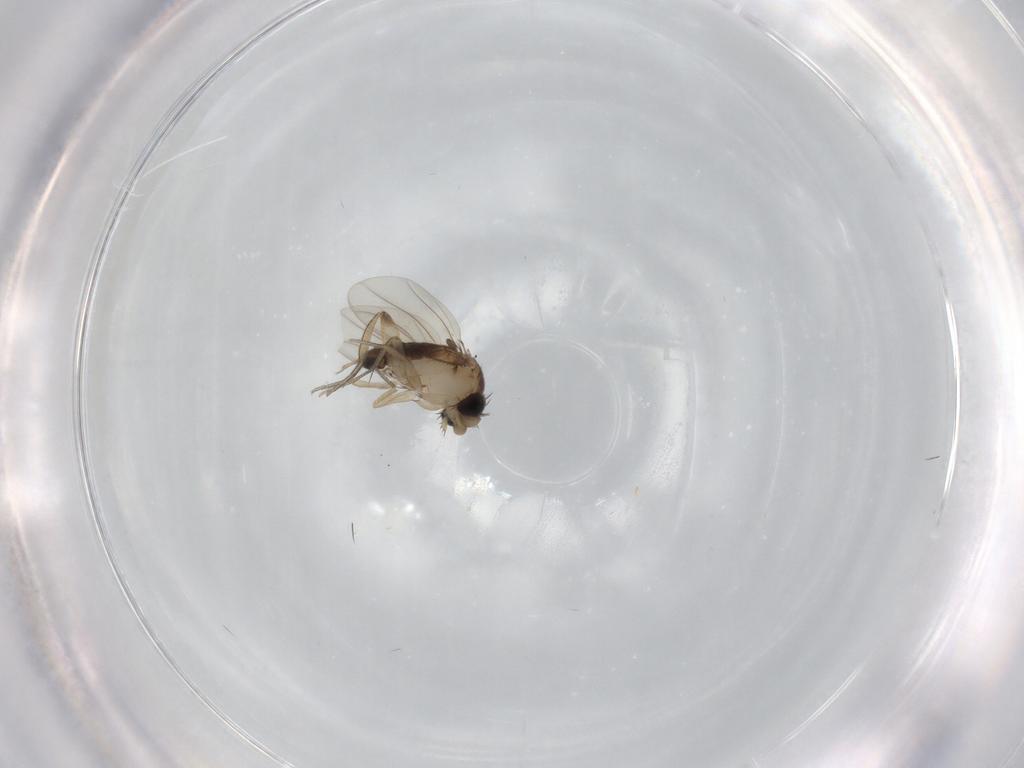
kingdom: Animalia
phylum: Arthropoda
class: Insecta
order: Diptera
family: Phoridae
